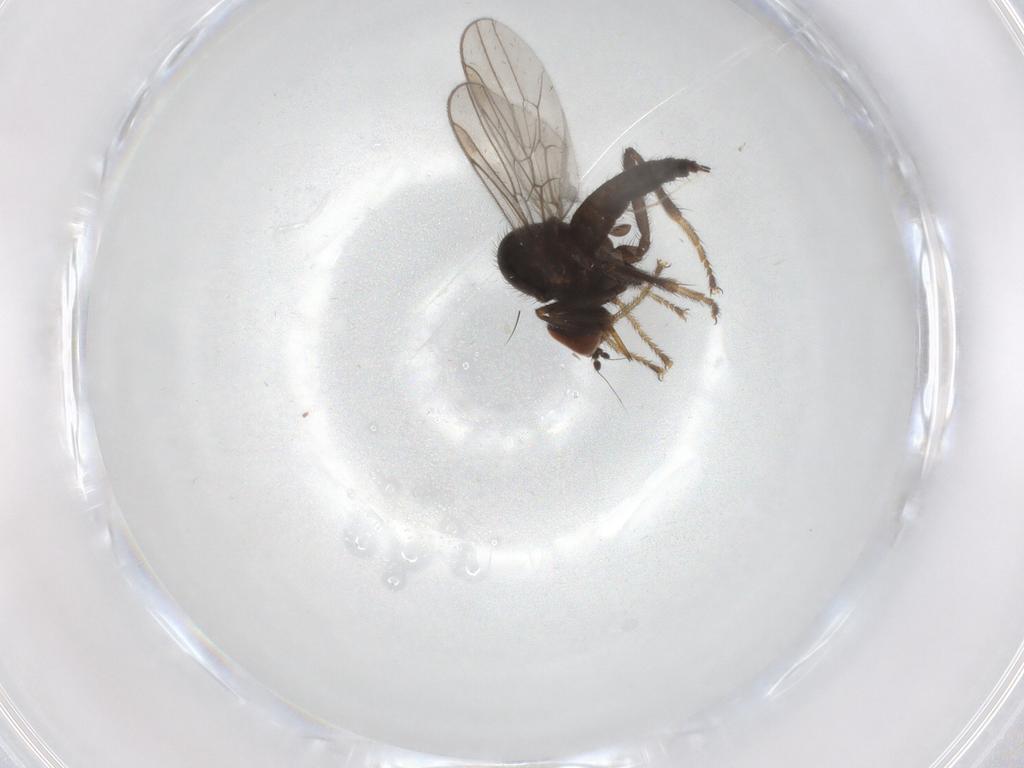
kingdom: Animalia
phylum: Arthropoda
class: Insecta
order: Diptera
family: Hybotidae
